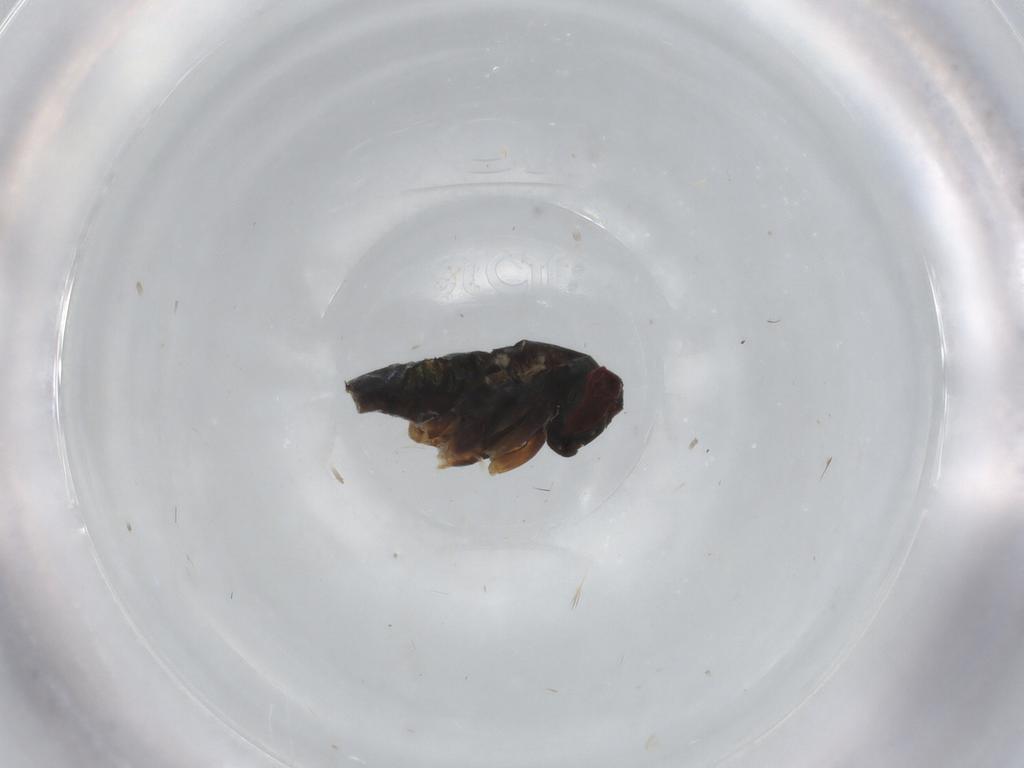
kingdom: Animalia
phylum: Arthropoda
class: Insecta
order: Diptera
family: Dolichopodidae
